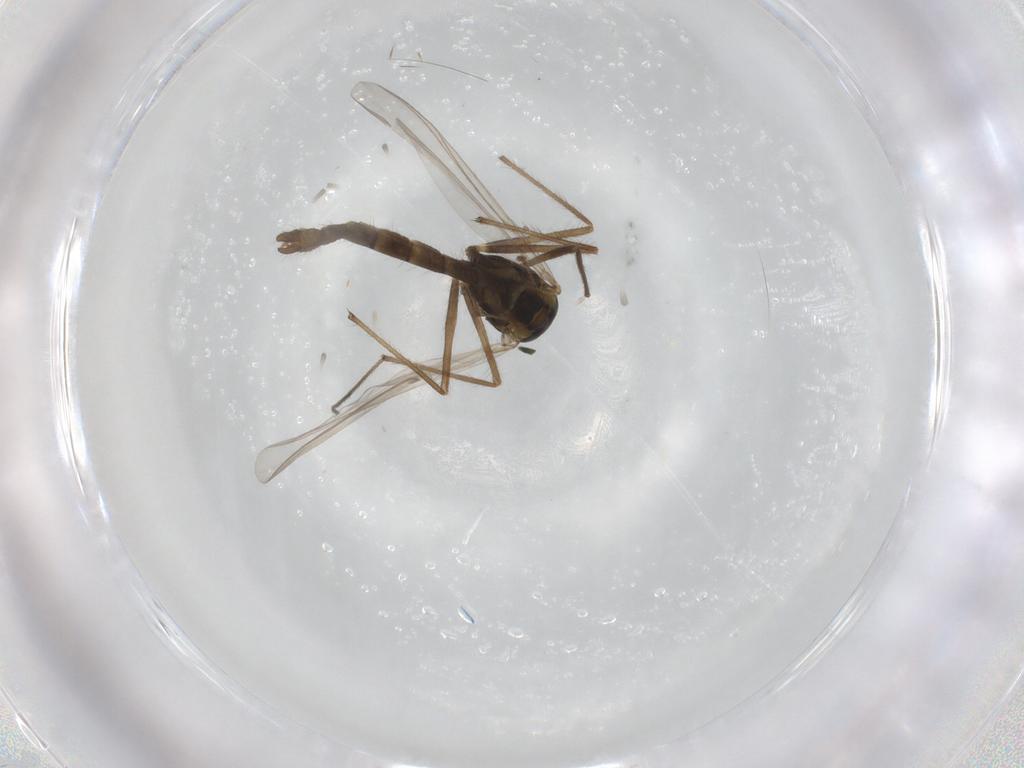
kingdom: Animalia
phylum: Arthropoda
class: Insecta
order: Diptera
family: Chironomidae
